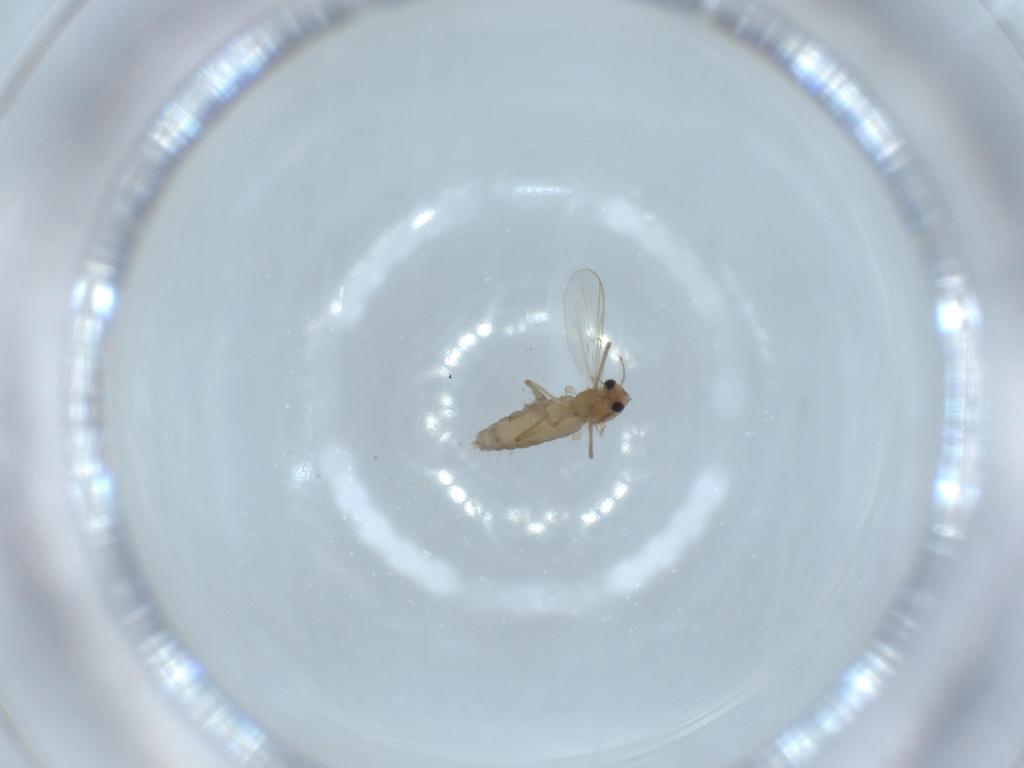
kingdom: Animalia
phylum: Arthropoda
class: Insecta
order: Diptera
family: Chironomidae
